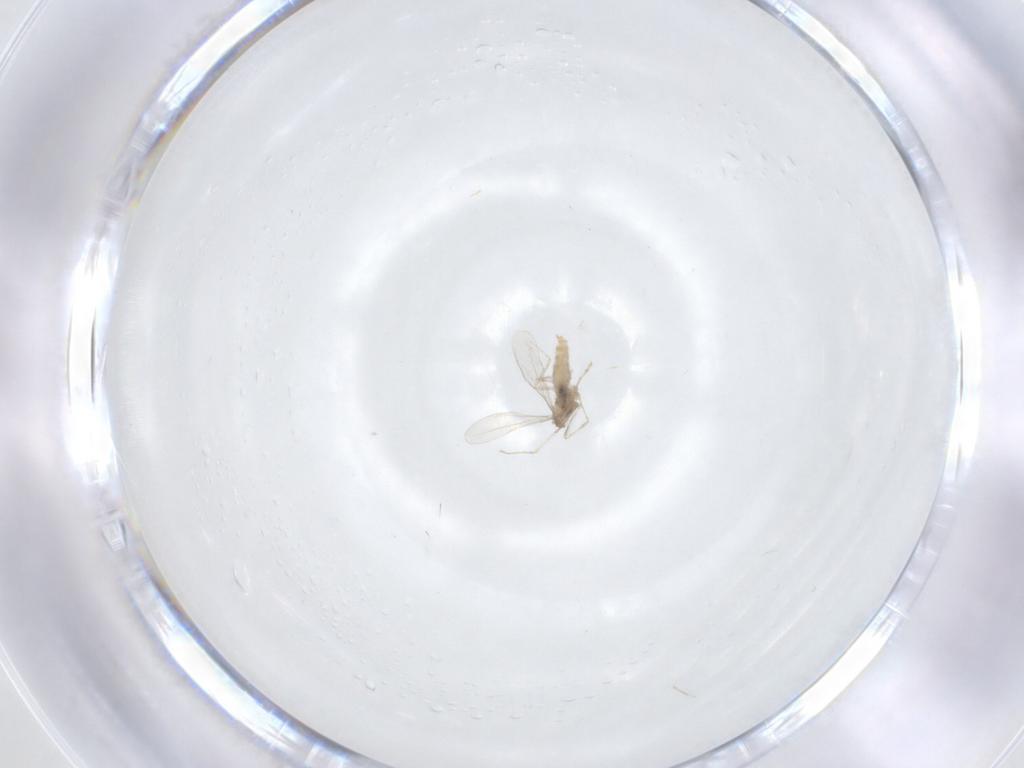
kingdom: Animalia
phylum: Arthropoda
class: Insecta
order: Diptera
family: Cecidomyiidae
